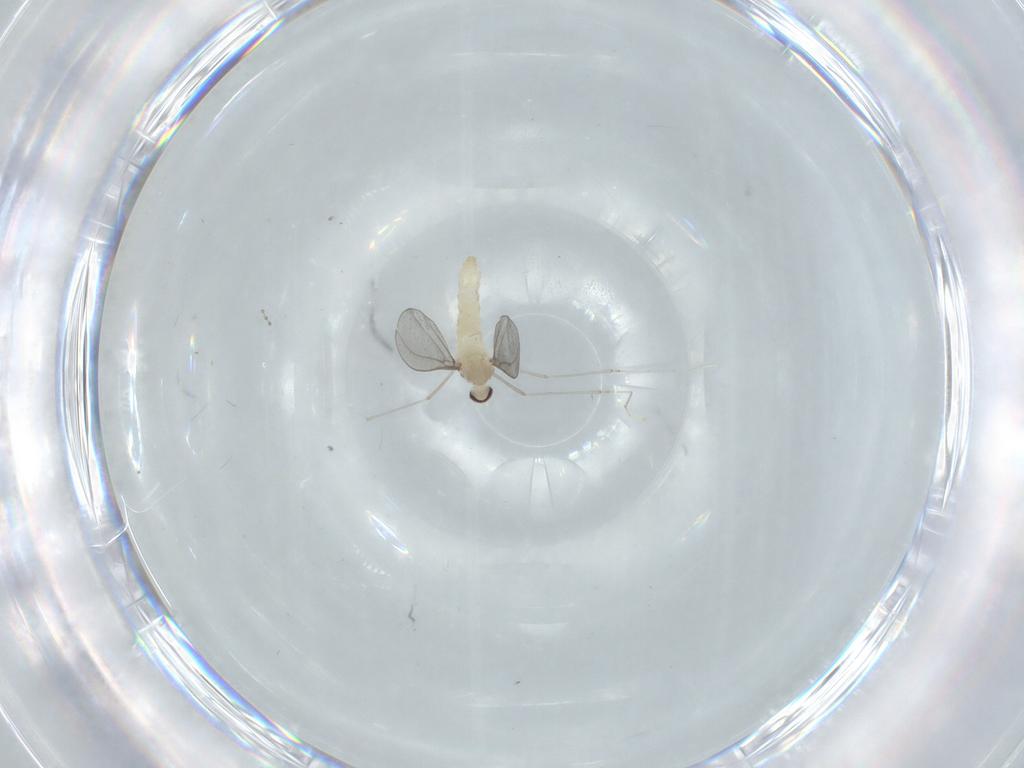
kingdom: Animalia
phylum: Arthropoda
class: Insecta
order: Diptera
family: Cecidomyiidae
